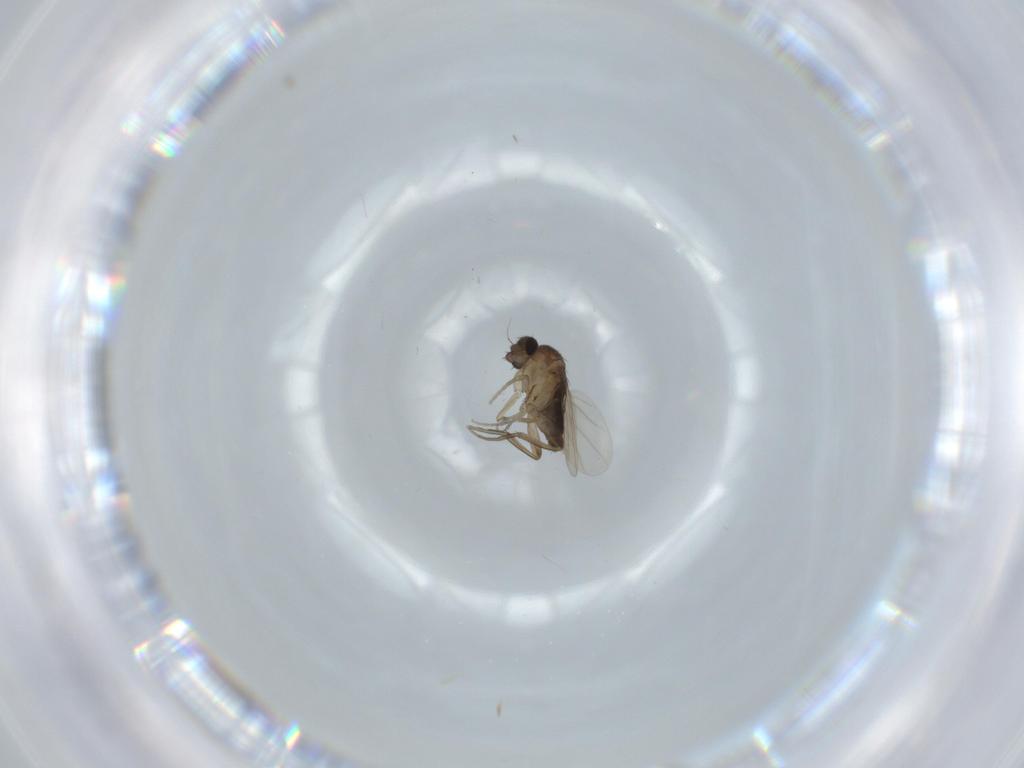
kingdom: Animalia
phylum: Arthropoda
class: Insecta
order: Diptera
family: Phoridae
